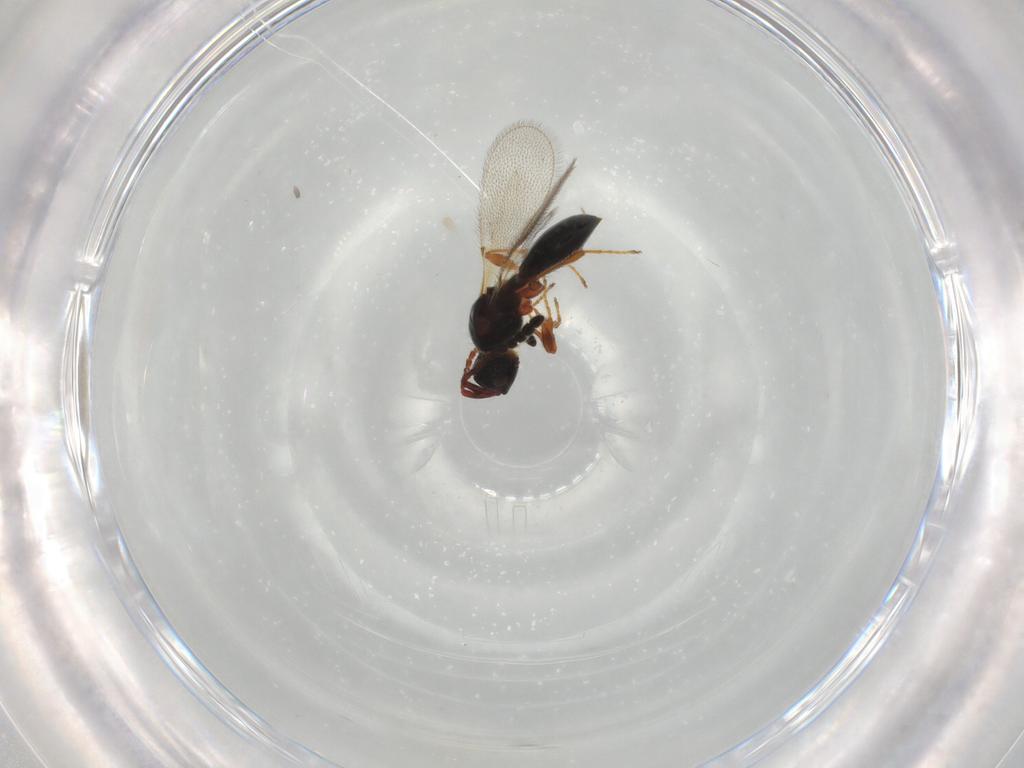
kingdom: Animalia
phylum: Arthropoda
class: Insecta
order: Hymenoptera
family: Diapriidae
